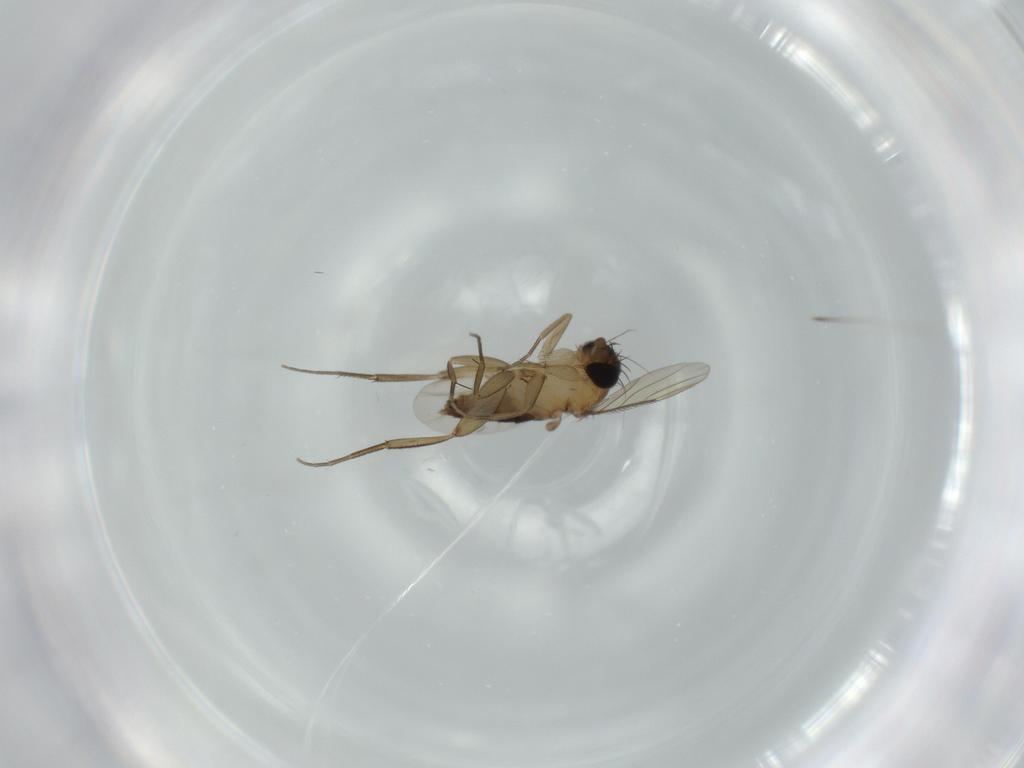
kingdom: Animalia
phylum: Arthropoda
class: Insecta
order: Diptera
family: Phoridae
